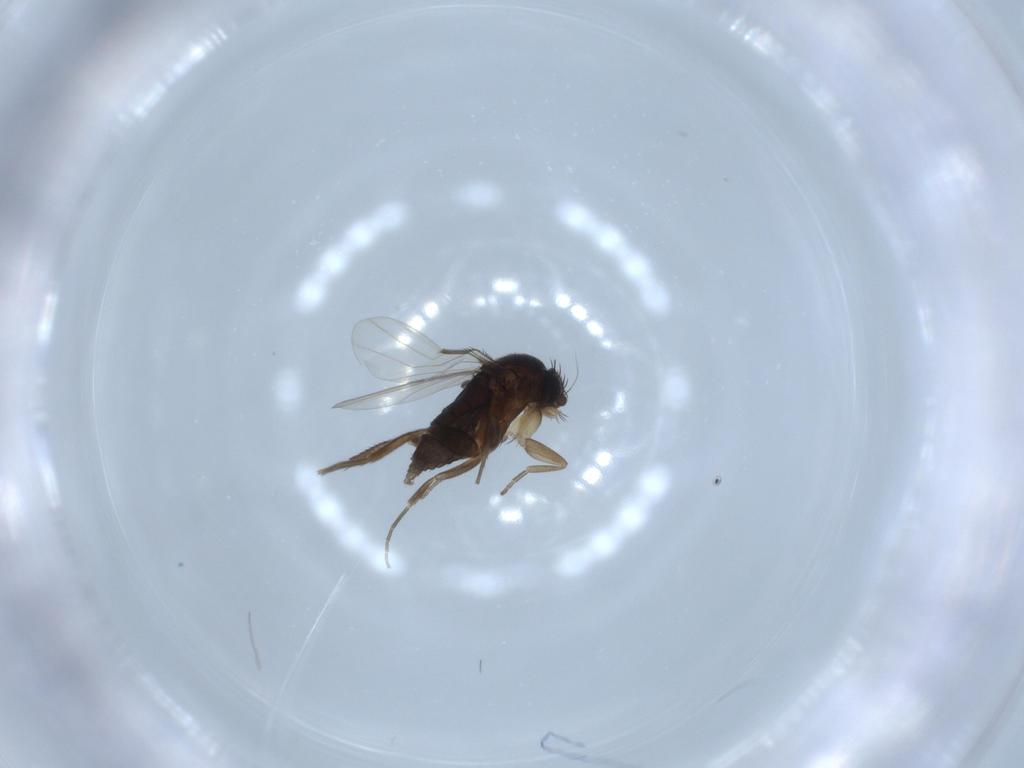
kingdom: Animalia
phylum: Arthropoda
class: Insecta
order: Diptera
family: Phoridae
